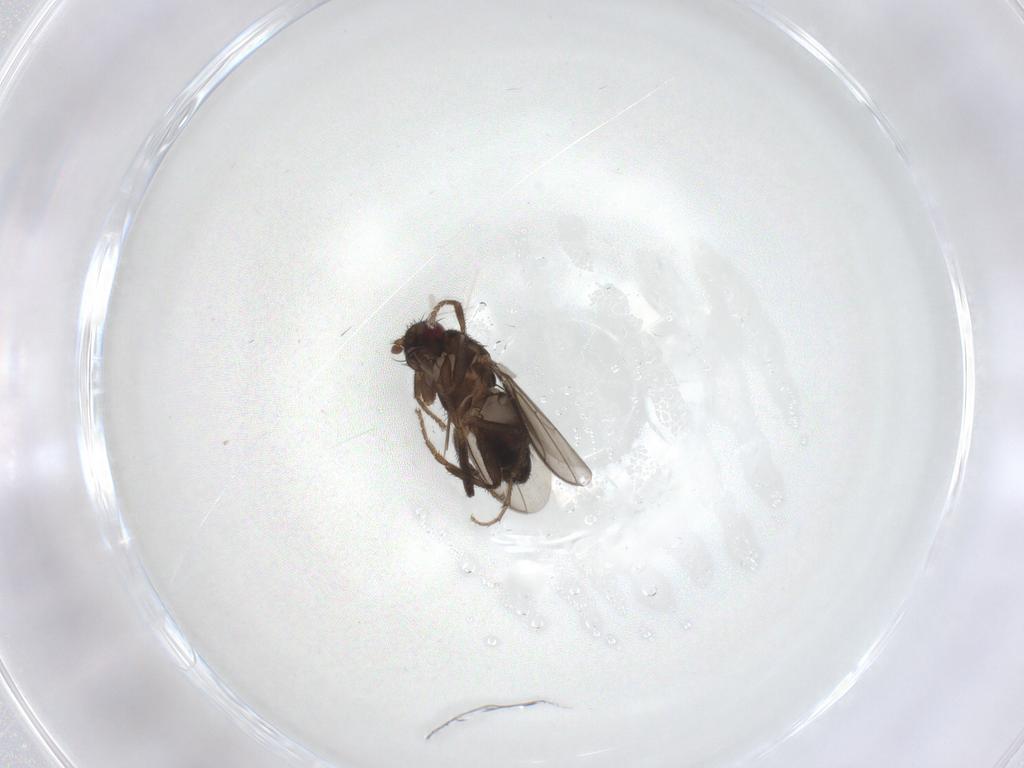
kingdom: Animalia
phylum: Arthropoda
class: Insecta
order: Diptera
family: Sphaeroceridae
